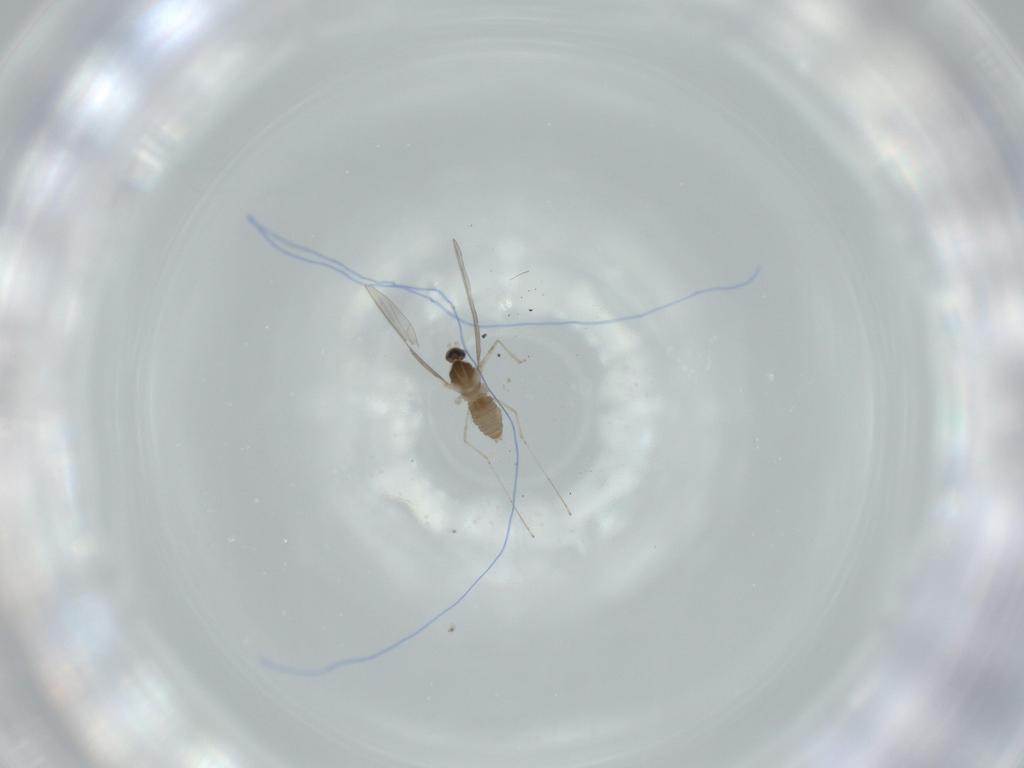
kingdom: Animalia
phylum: Arthropoda
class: Insecta
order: Diptera
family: Cecidomyiidae
